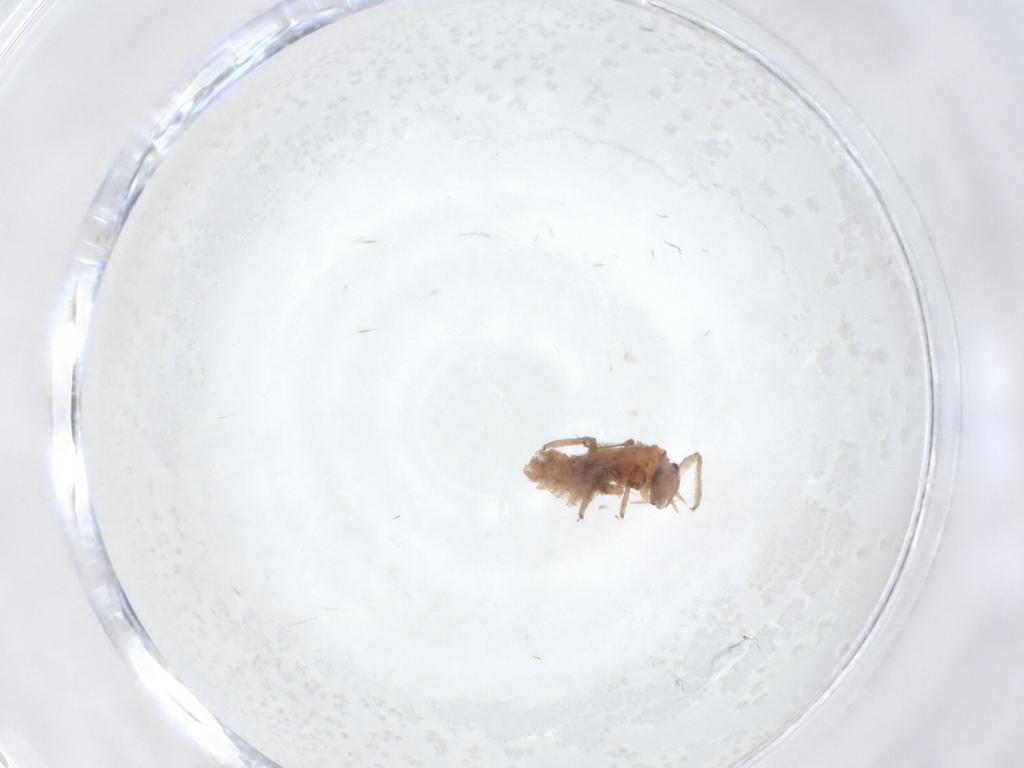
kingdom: Animalia
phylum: Arthropoda
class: Insecta
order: Neuroptera
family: Chrysopidae
